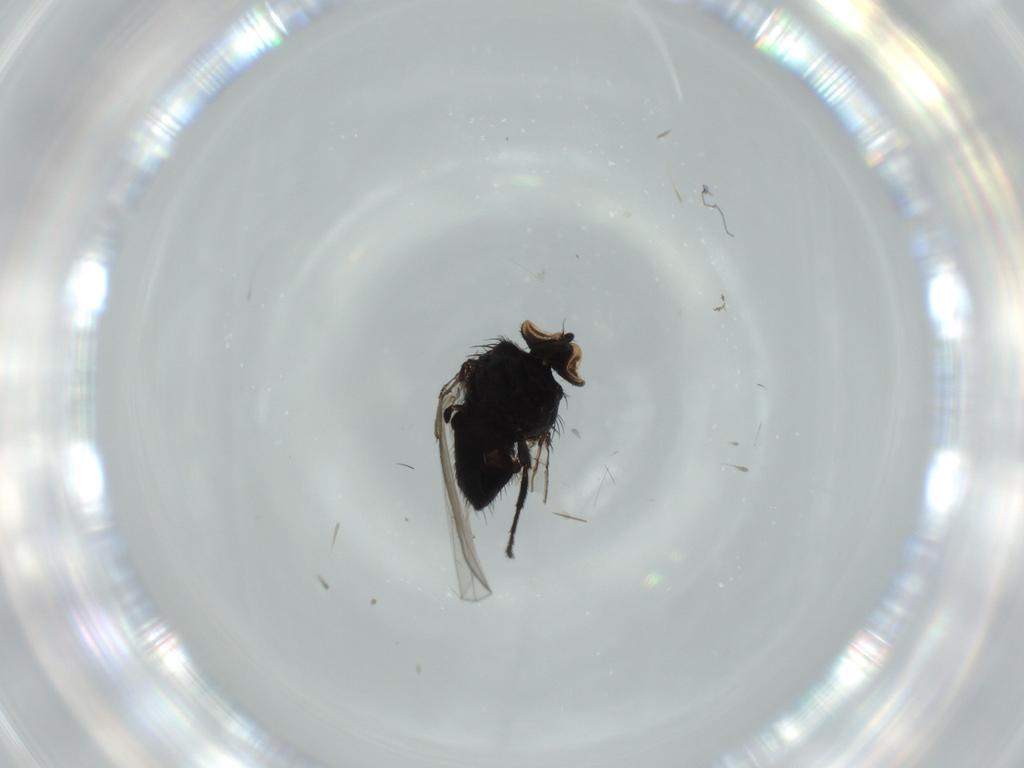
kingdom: Animalia
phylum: Arthropoda
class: Insecta
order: Diptera
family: Milichiidae
